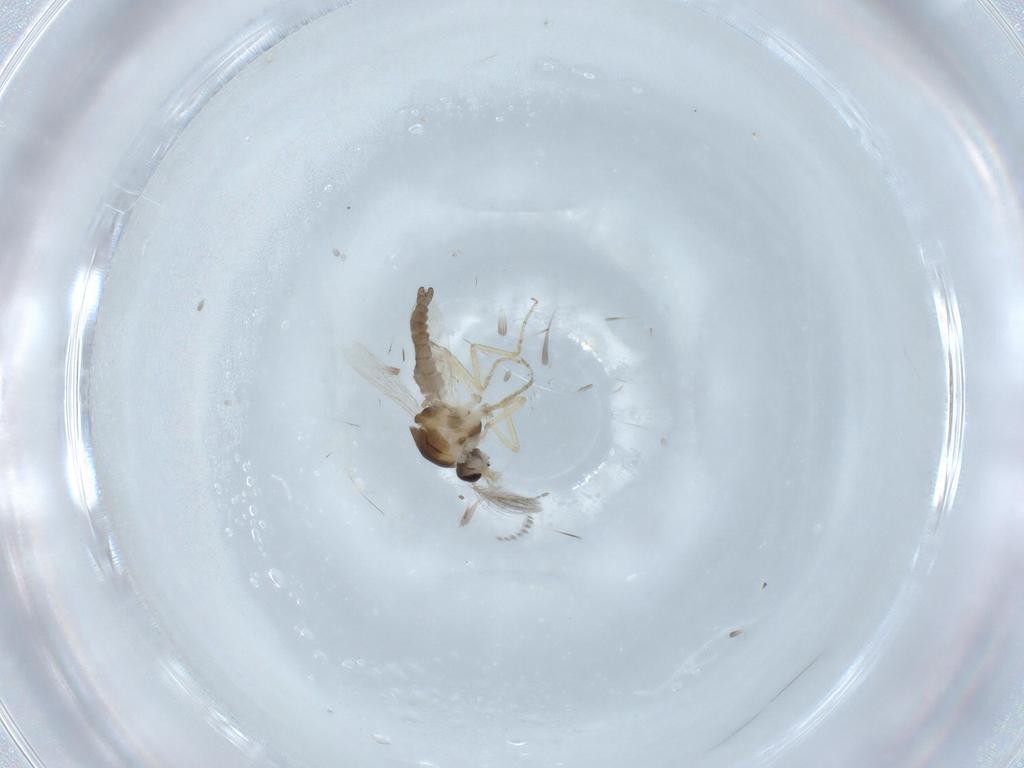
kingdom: Animalia
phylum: Arthropoda
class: Insecta
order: Diptera
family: Ceratopogonidae
